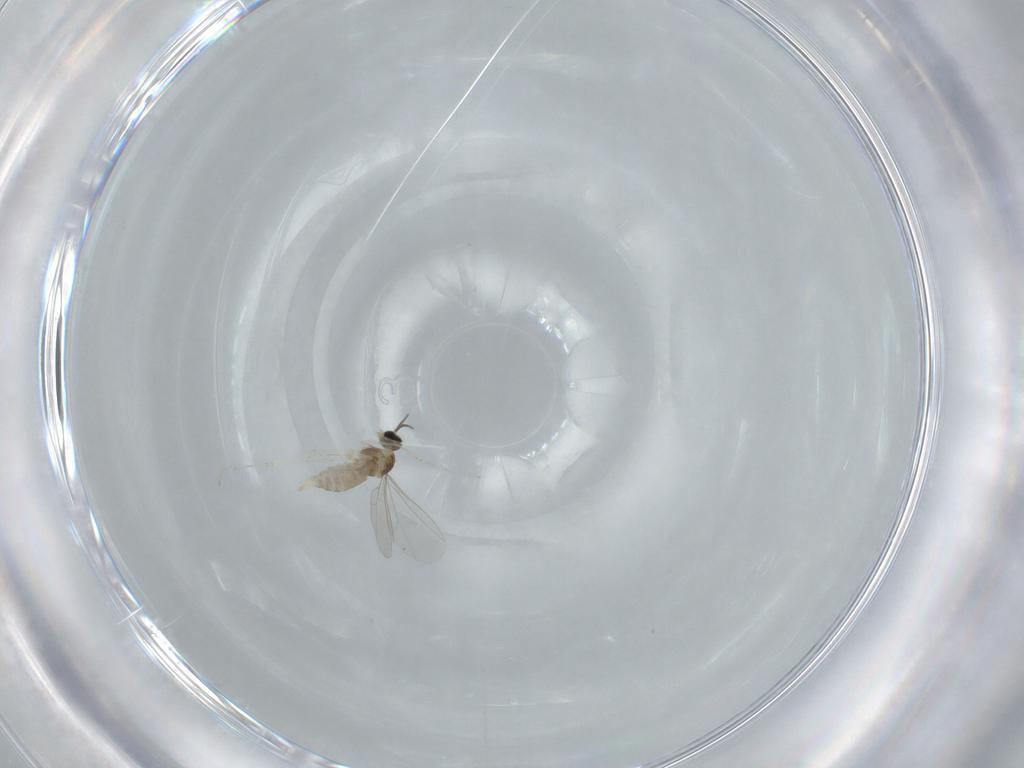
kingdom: Animalia
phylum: Arthropoda
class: Insecta
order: Diptera
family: Cecidomyiidae
